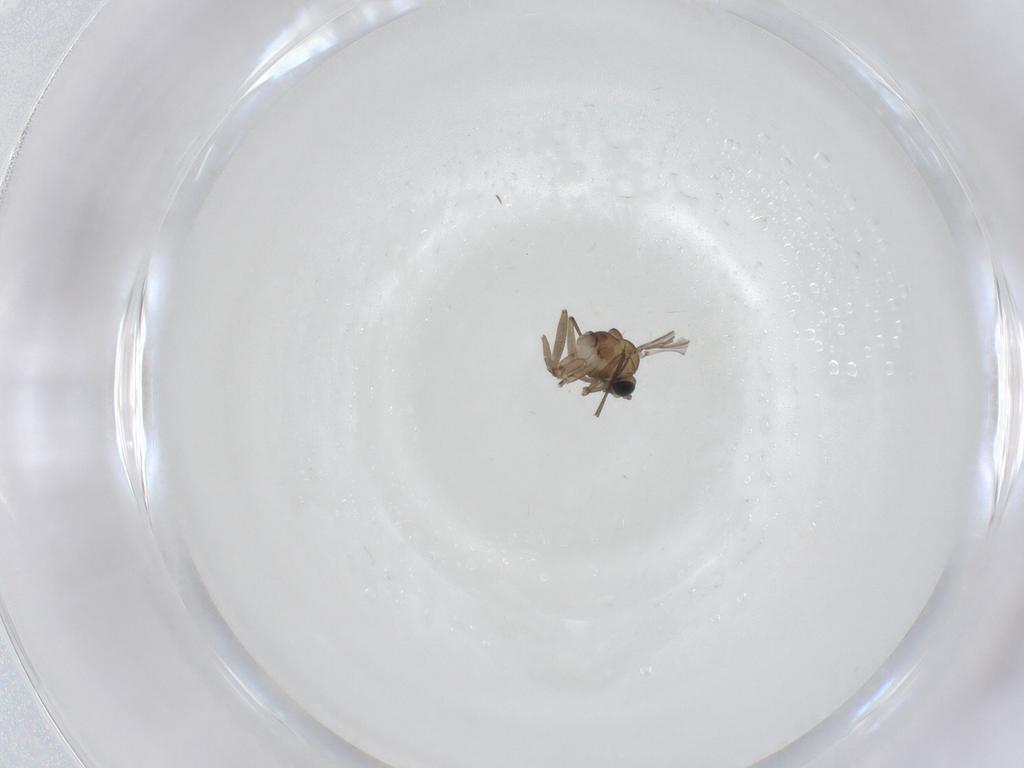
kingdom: Animalia
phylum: Arthropoda
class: Insecta
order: Diptera
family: Sciaridae
